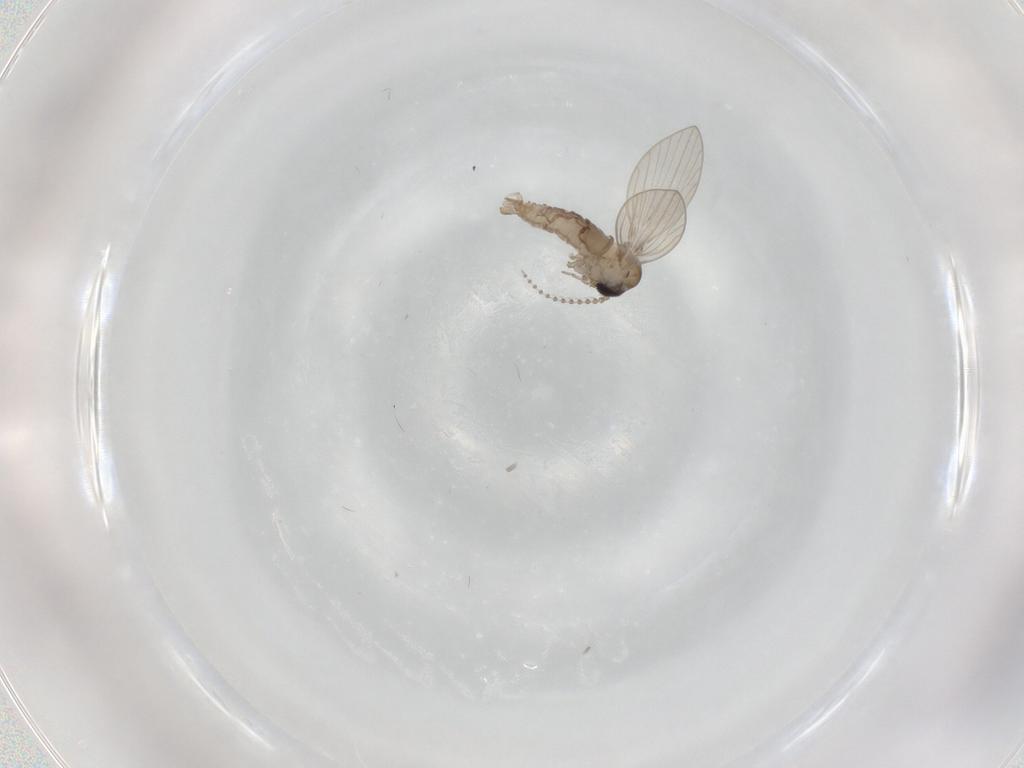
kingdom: Animalia
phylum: Arthropoda
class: Insecta
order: Diptera
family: Psychodidae
